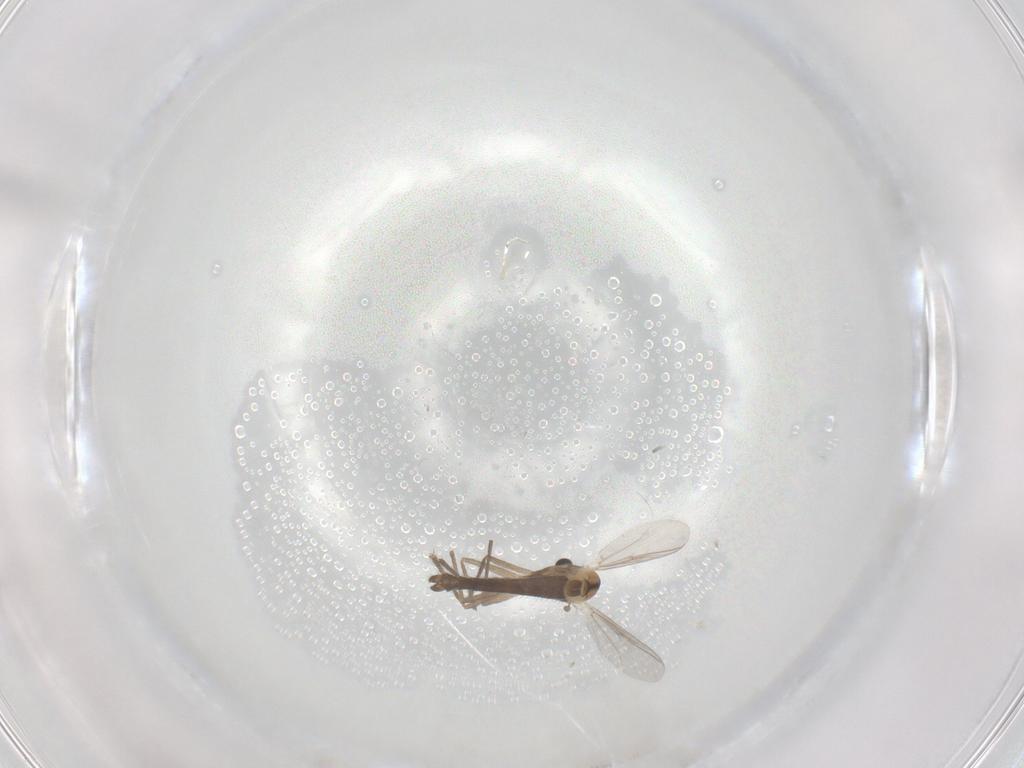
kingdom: Animalia
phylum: Arthropoda
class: Insecta
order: Diptera
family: Chironomidae
